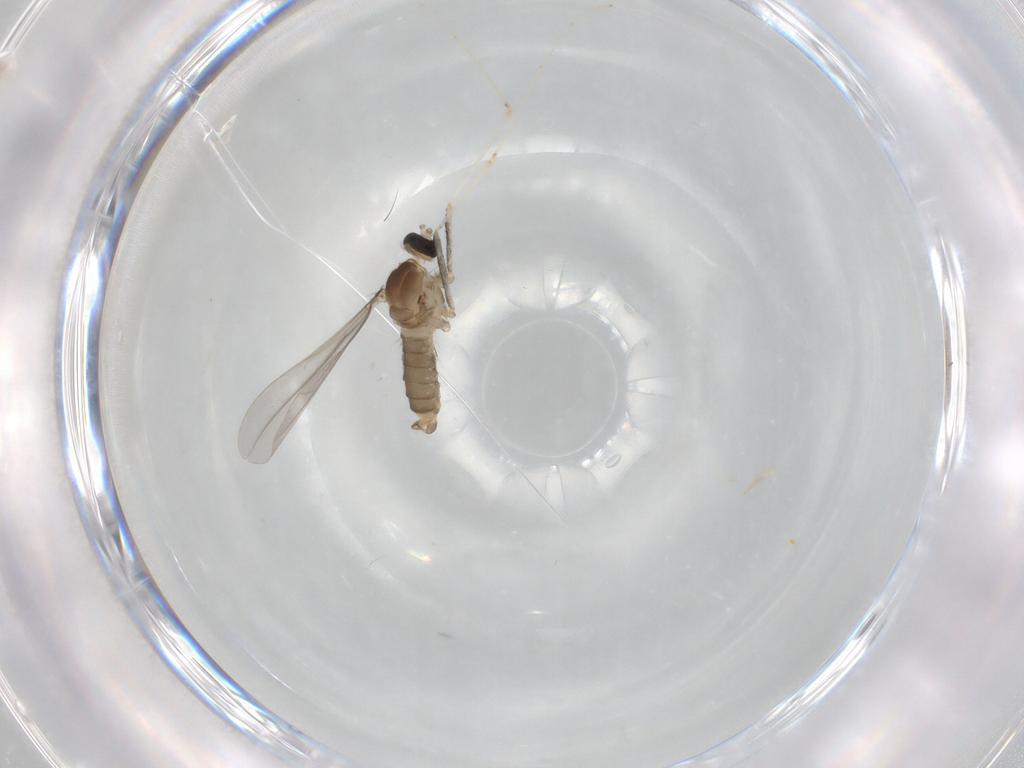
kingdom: Animalia
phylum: Arthropoda
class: Insecta
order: Diptera
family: Cecidomyiidae
